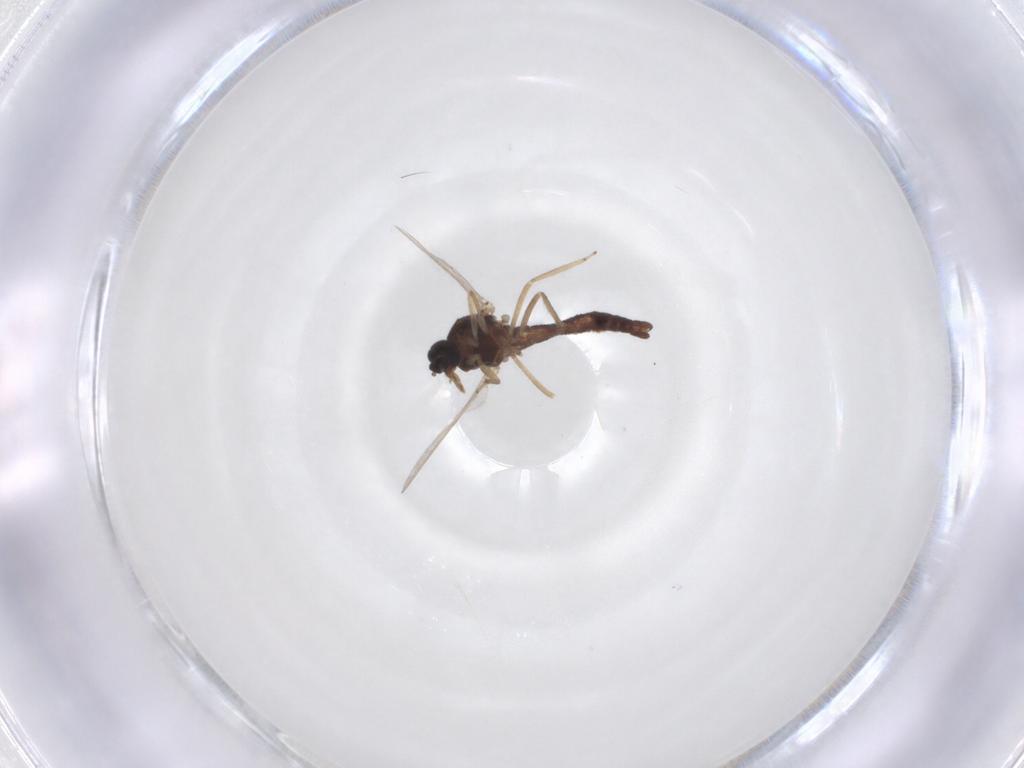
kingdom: Animalia
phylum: Arthropoda
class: Insecta
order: Diptera
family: Ceratopogonidae
